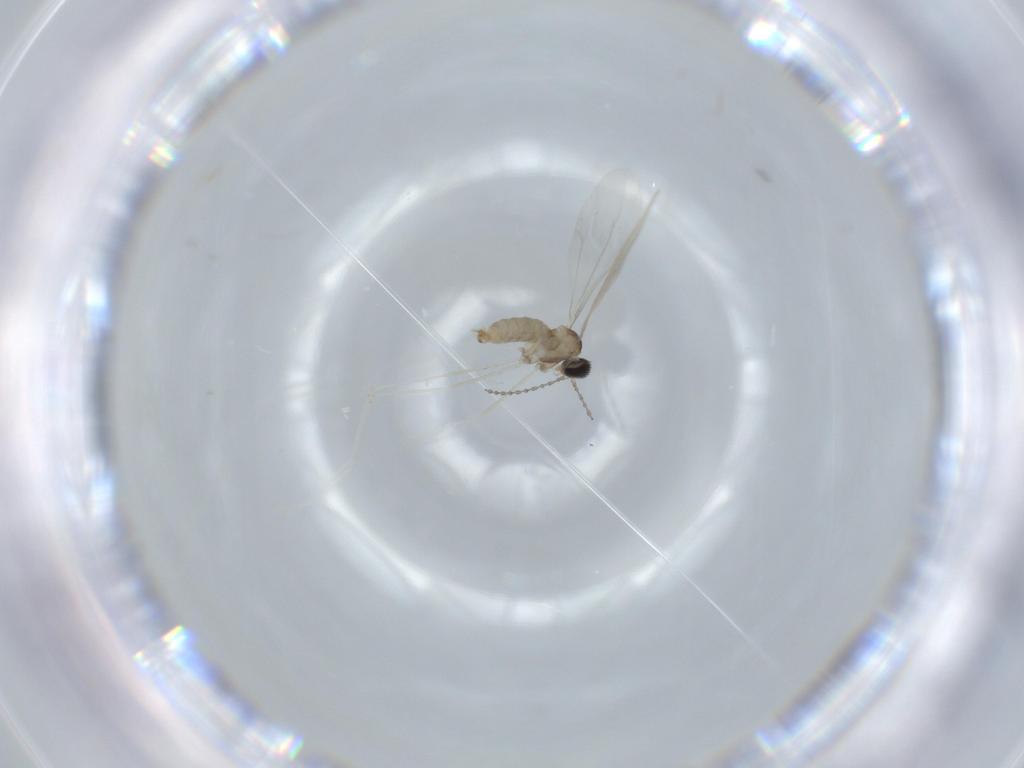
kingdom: Animalia
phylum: Arthropoda
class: Insecta
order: Diptera
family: Cecidomyiidae
